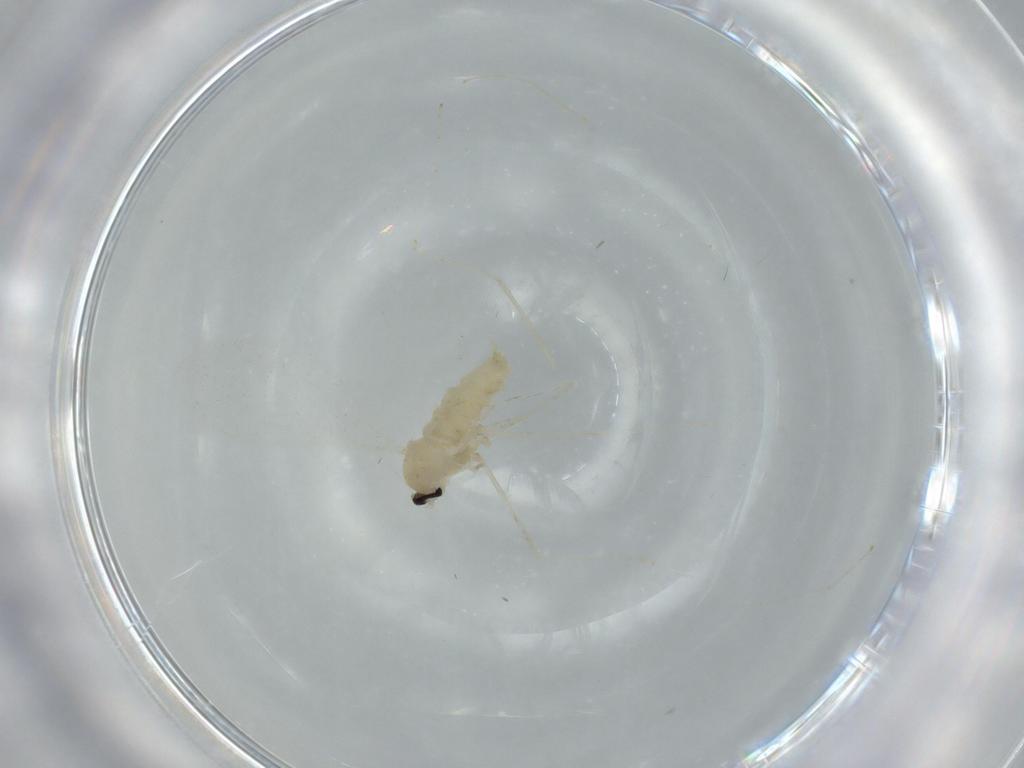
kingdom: Animalia
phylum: Arthropoda
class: Insecta
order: Diptera
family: Cecidomyiidae
